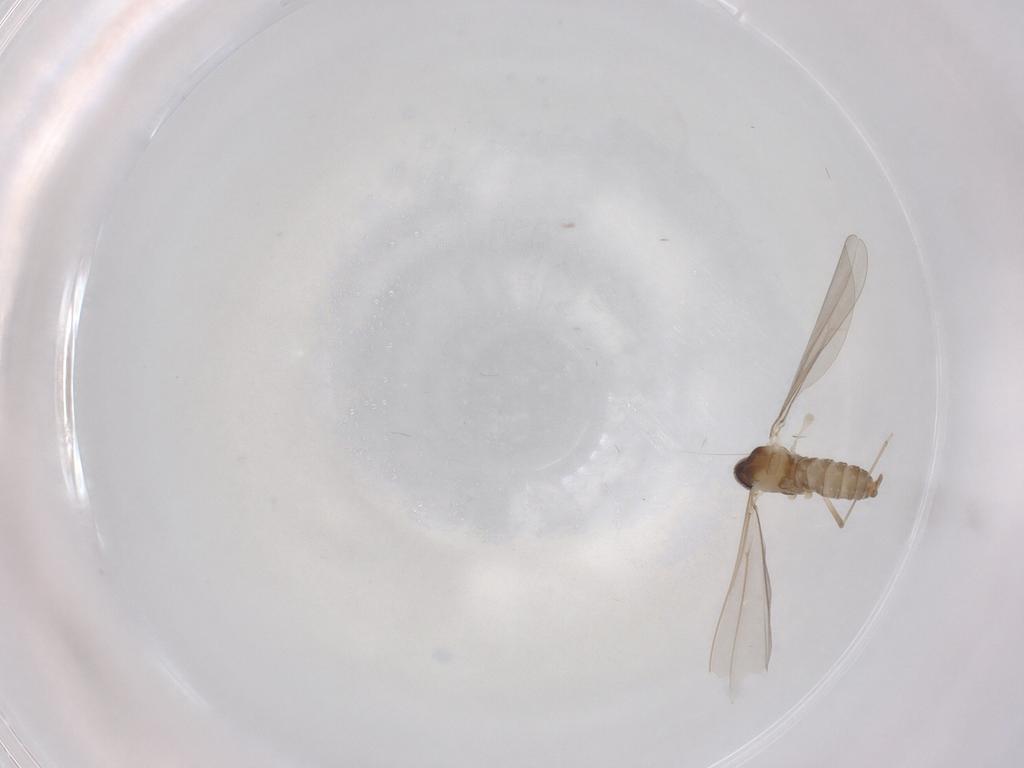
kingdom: Animalia
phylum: Arthropoda
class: Insecta
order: Diptera
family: Cecidomyiidae
